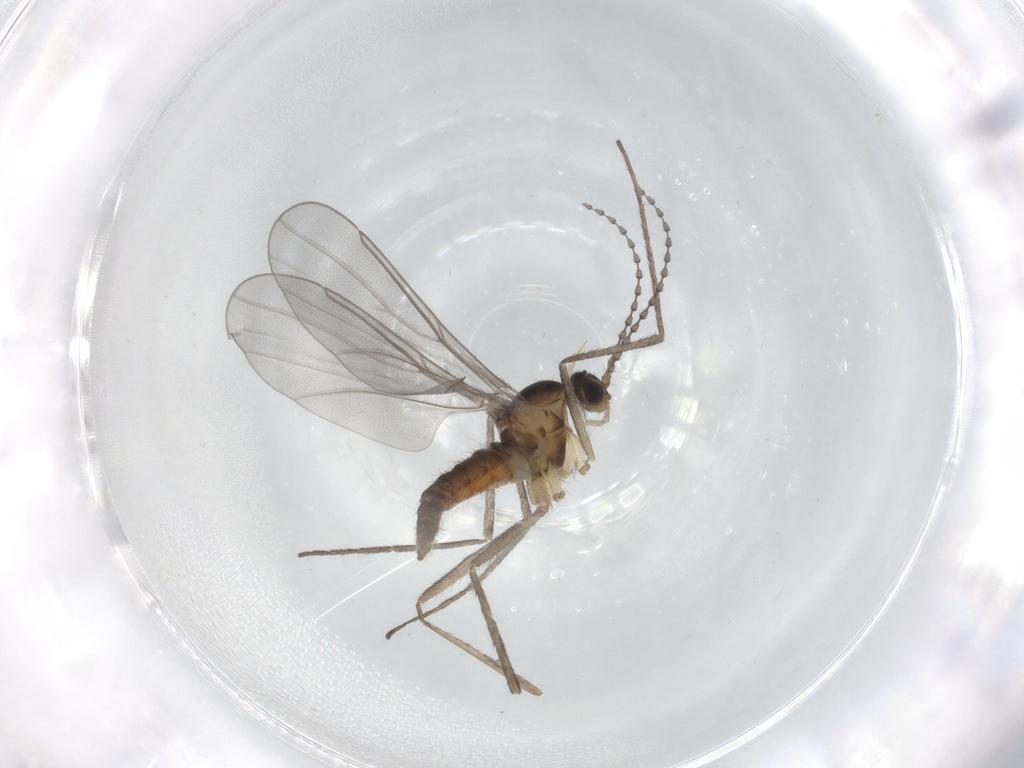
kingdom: Animalia
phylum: Arthropoda
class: Insecta
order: Diptera
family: Cecidomyiidae
